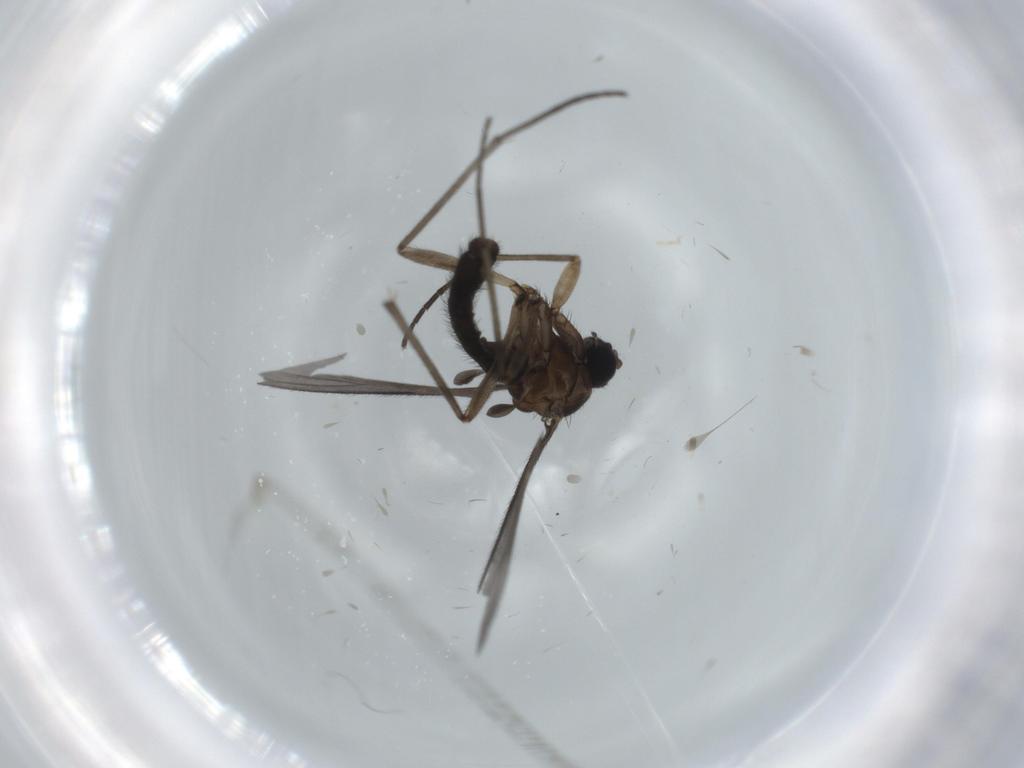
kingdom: Animalia
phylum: Arthropoda
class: Insecta
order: Diptera
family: Sciaridae
